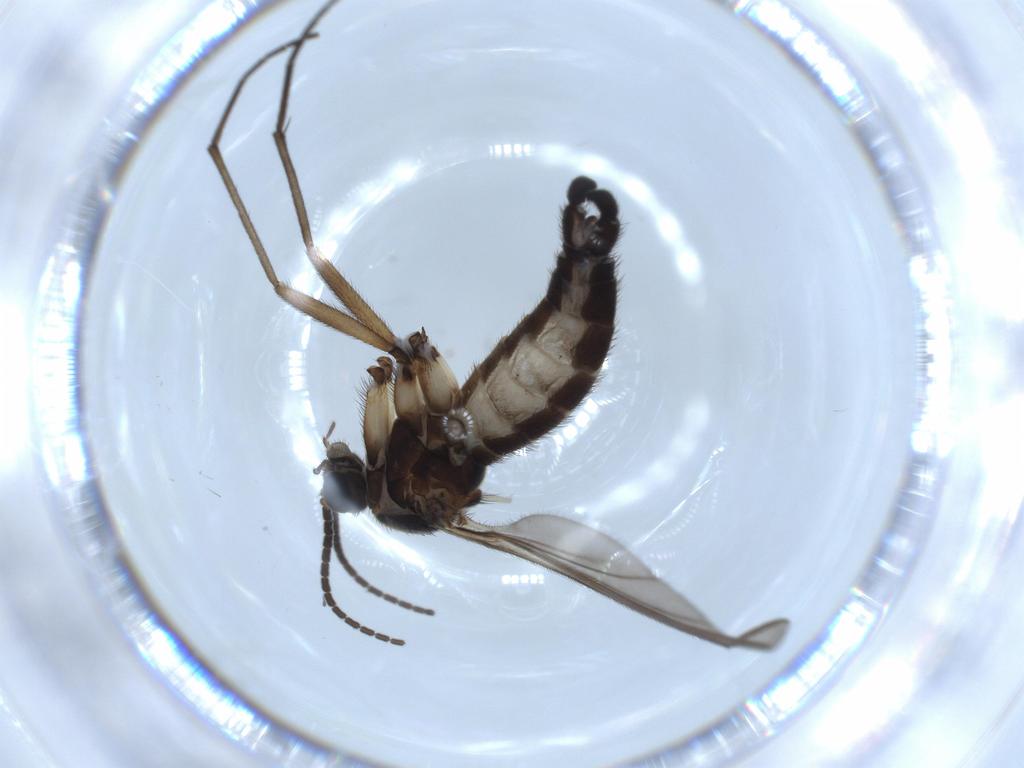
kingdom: Animalia
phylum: Arthropoda
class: Insecta
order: Diptera
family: Sciaridae
